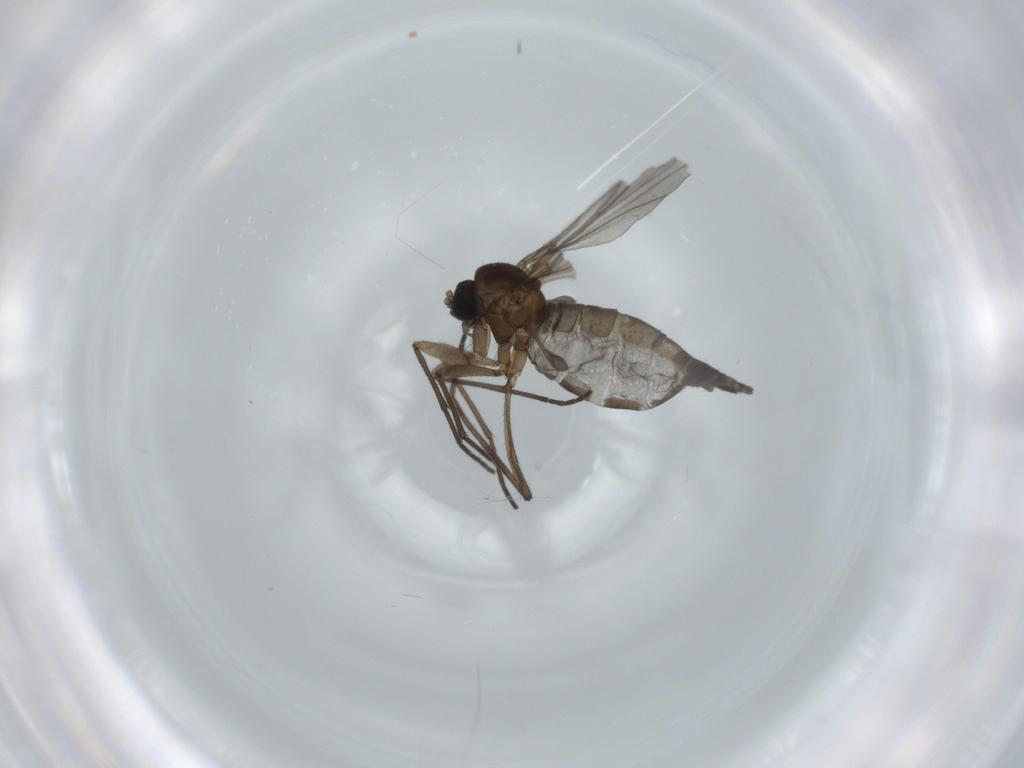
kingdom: Animalia
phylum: Arthropoda
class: Insecta
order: Diptera
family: Sciaridae
